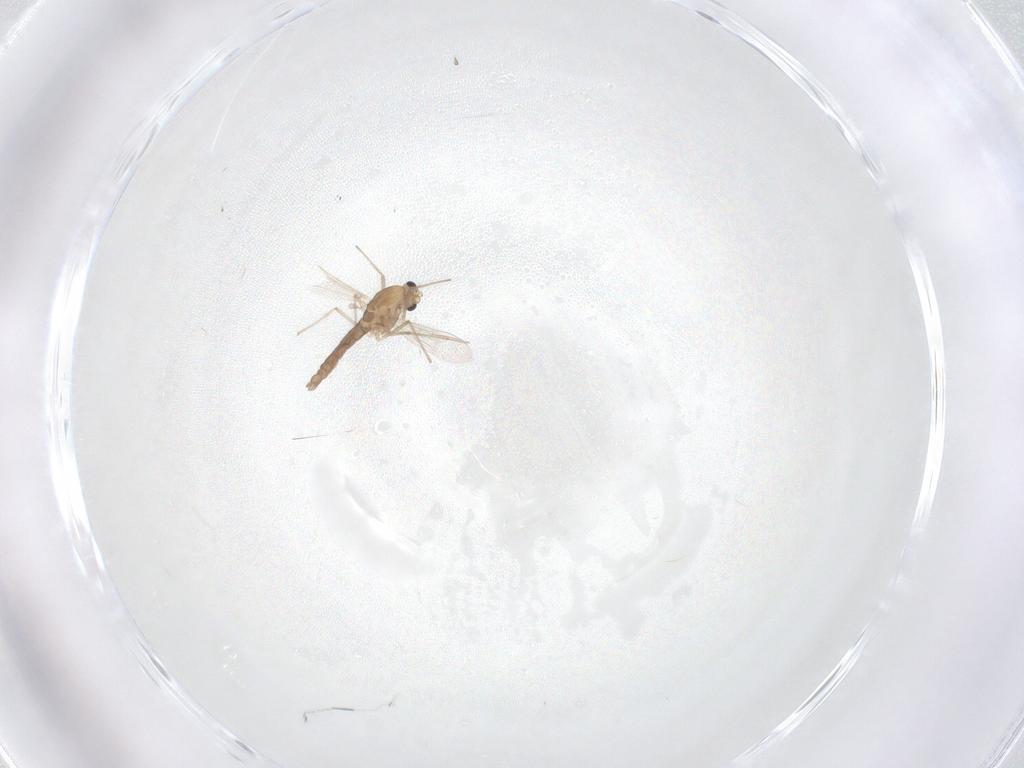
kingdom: Animalia
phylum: Arthropoda
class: Insecta
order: Diptera
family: Chironomidae
